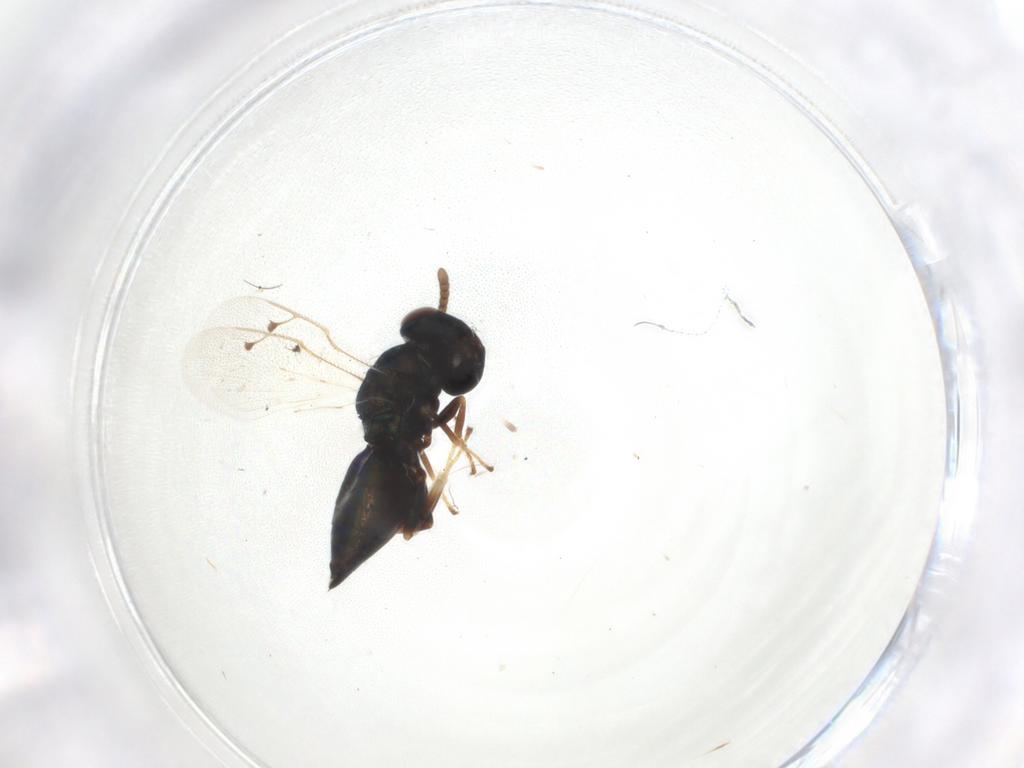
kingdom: Animalia
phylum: Arthropoda
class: Insecta
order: Hymenoptera
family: Pteromalidae
